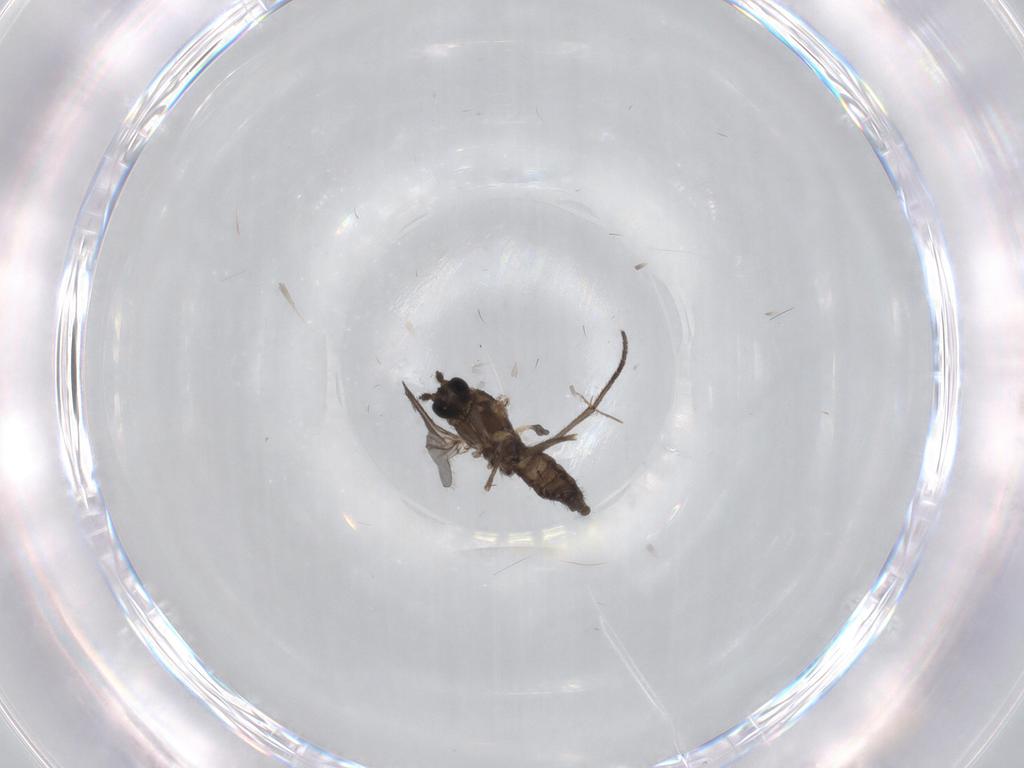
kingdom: Animalia
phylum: Arthropoda
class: Insecta
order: Diptera
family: Sciaridae
